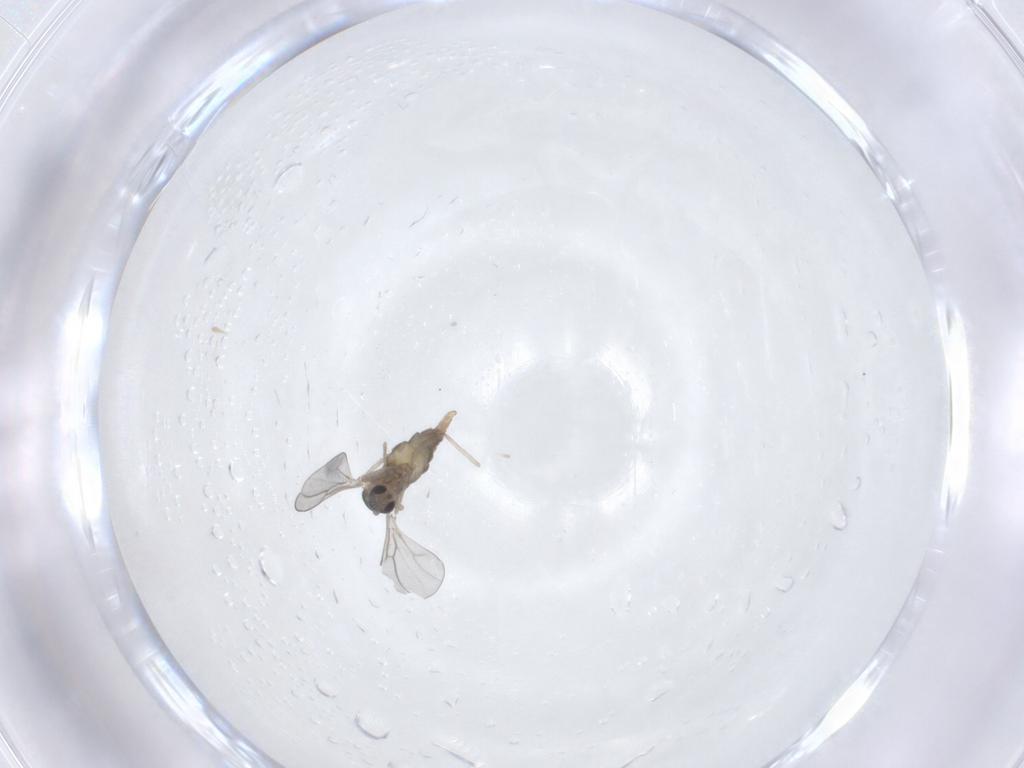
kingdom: Animalia
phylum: Arthropoda
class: Insecta
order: Diptera
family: Cecidomyiidae
